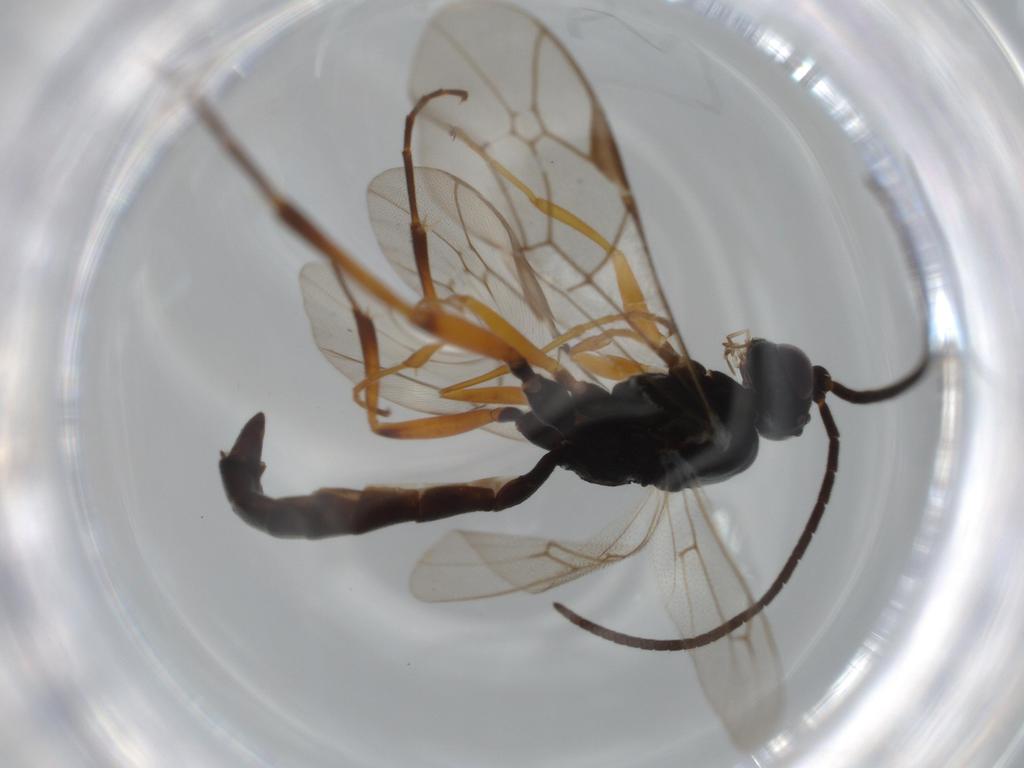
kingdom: Animalia
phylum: Arthropoda
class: Insecta
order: Hymenoptera
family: Ichneumonidae
